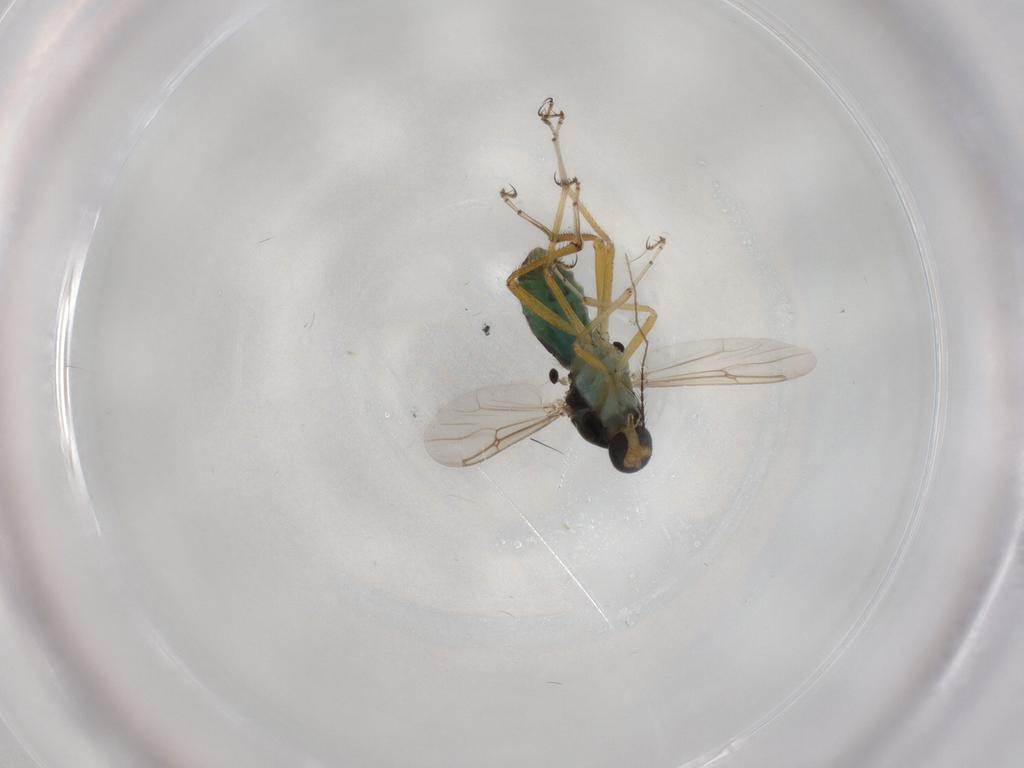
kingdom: Animalia
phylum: Arthropoda
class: Insecta
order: Diptera
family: Ceratopogonidae
